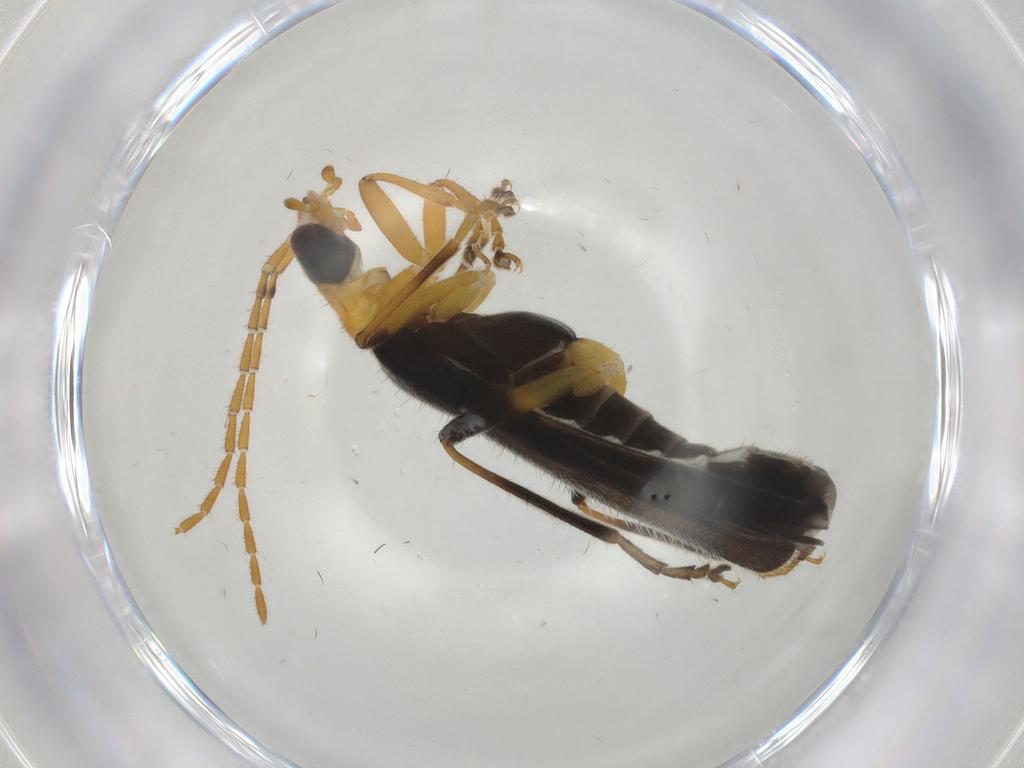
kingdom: Animalia
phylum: Arthropoda
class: Insecta
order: Coleoptera
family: Cantharidae
